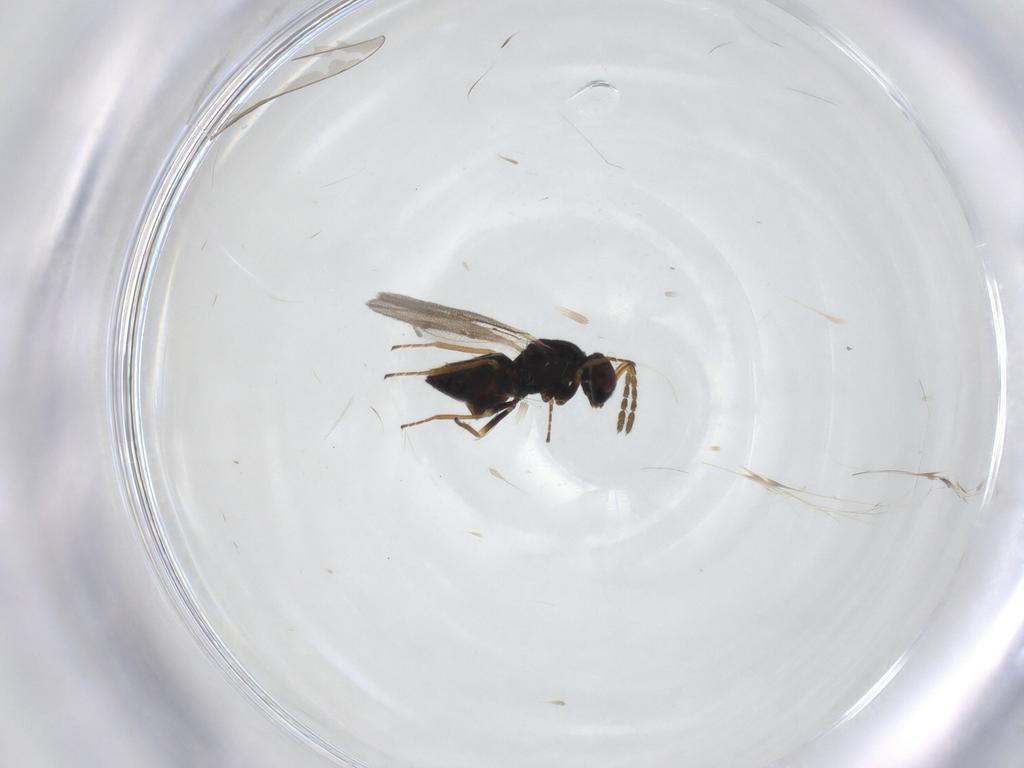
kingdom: Animalia
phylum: Arthropoda
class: Insecta
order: Hymenoptera
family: Eulophidae
